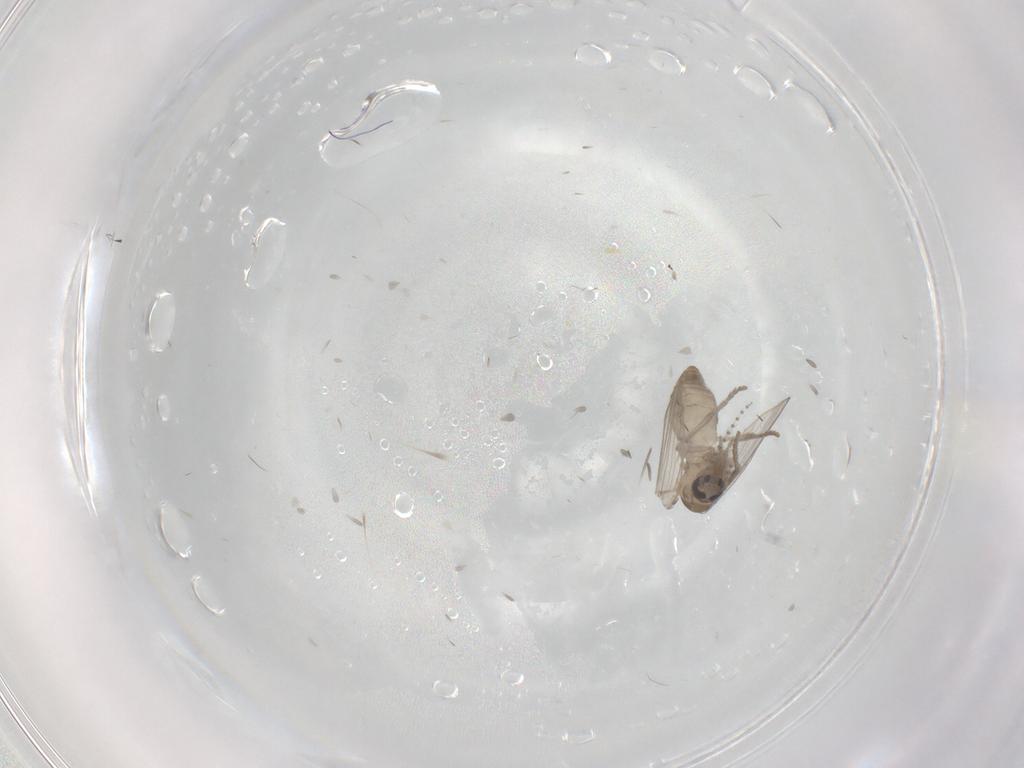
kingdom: Animalia
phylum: Arthropoda
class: Insecta
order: Diptera
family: Psychodidae
